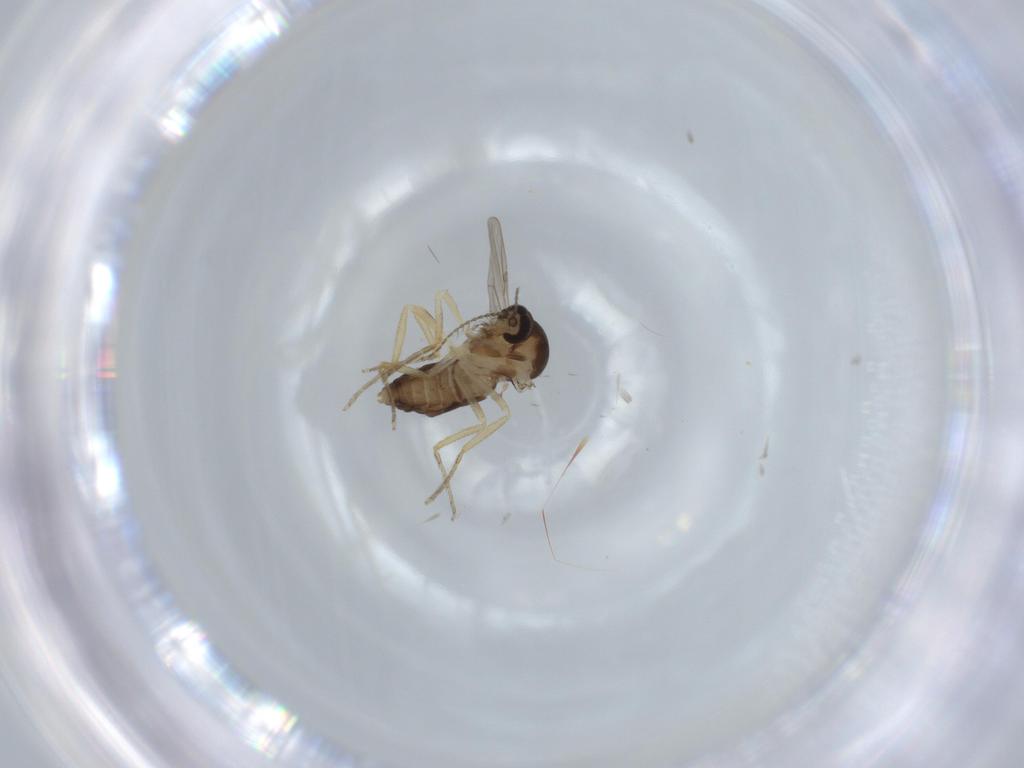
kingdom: Animalia
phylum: Arthropoda
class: Insecta
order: Diptera
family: Ceratopogonidae
